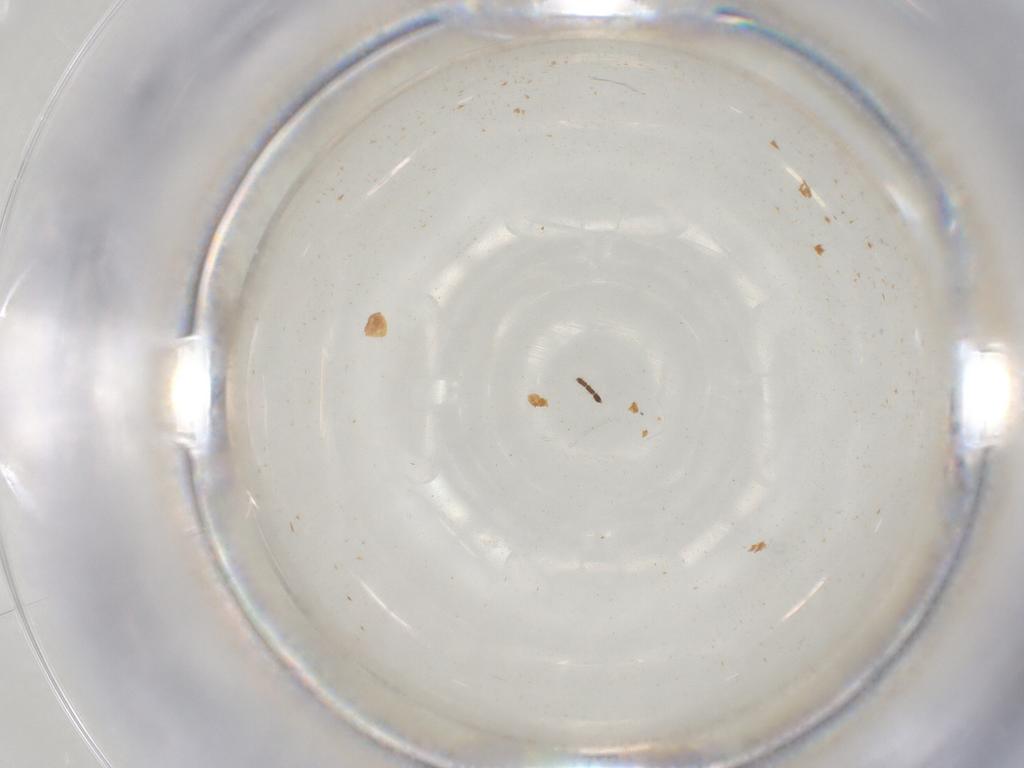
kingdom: Animalia
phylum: Arthropoda
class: Insecta
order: Diptera
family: Sciaridae
